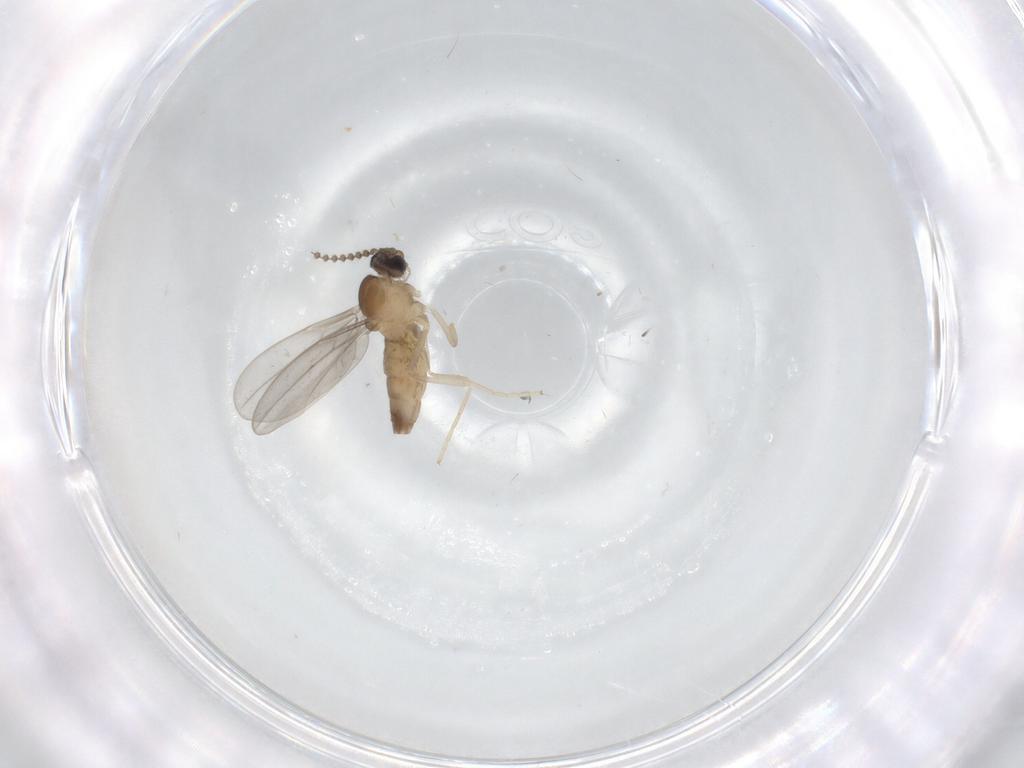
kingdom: Animalia
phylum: Arthropoda
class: Insecta
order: Diptera
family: Cecidomyiidae
